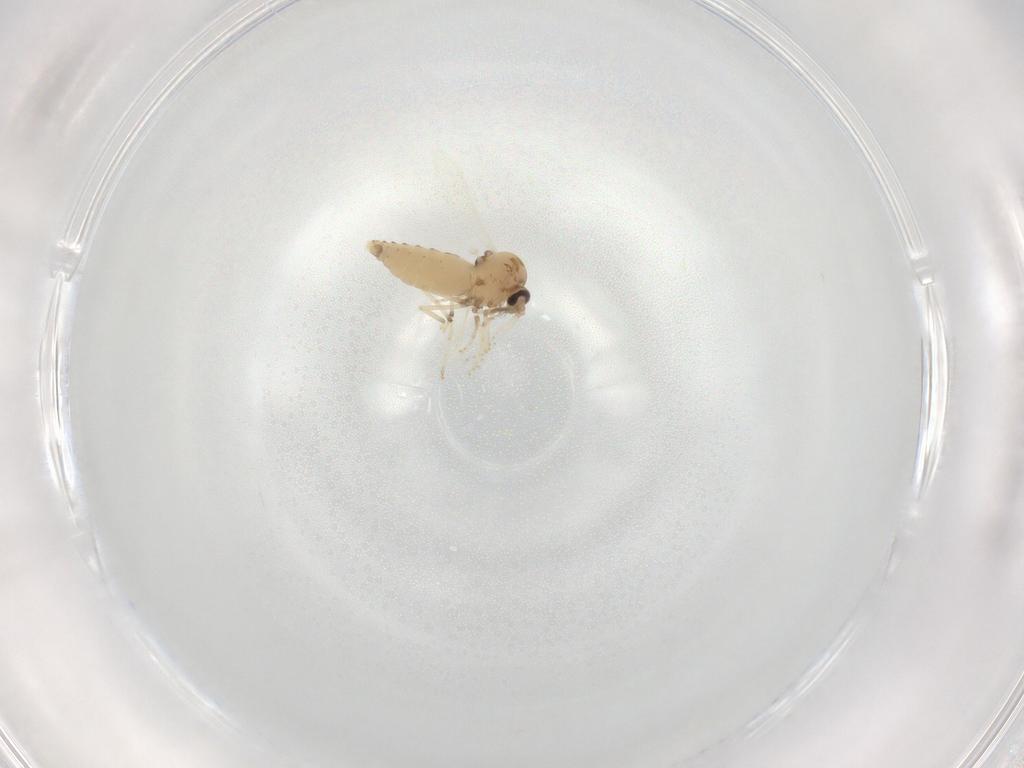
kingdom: Animalia
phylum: Arthropoda
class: Insecta
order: Diptera
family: Ceratopogonidae
